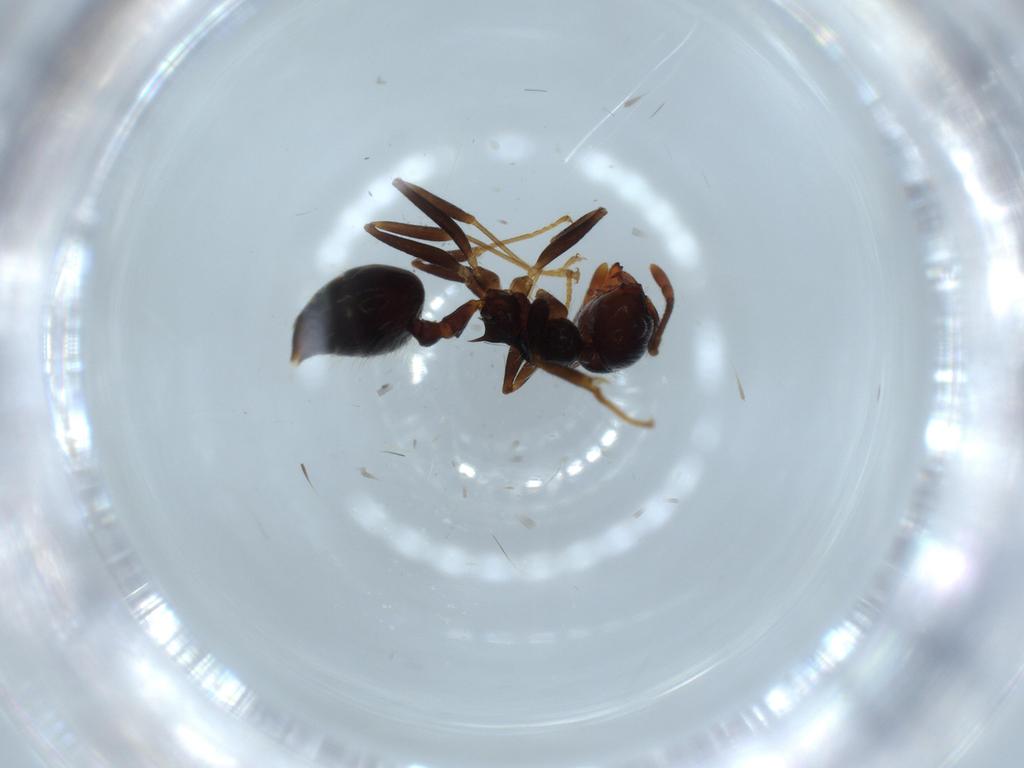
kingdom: Animalia
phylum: Arthropoda
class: Insecta
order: Hymenoptera
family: Formicidae
